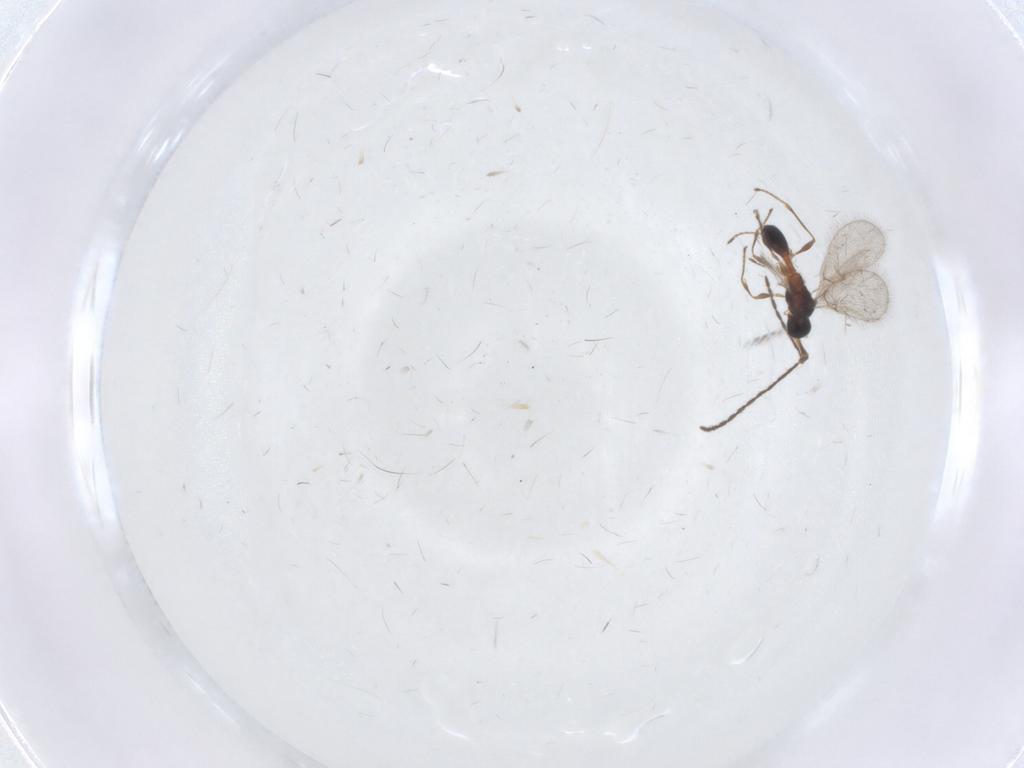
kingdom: Animalia
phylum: Arthropoda
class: Insecta
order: Hymenoptera
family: Diapriidae
